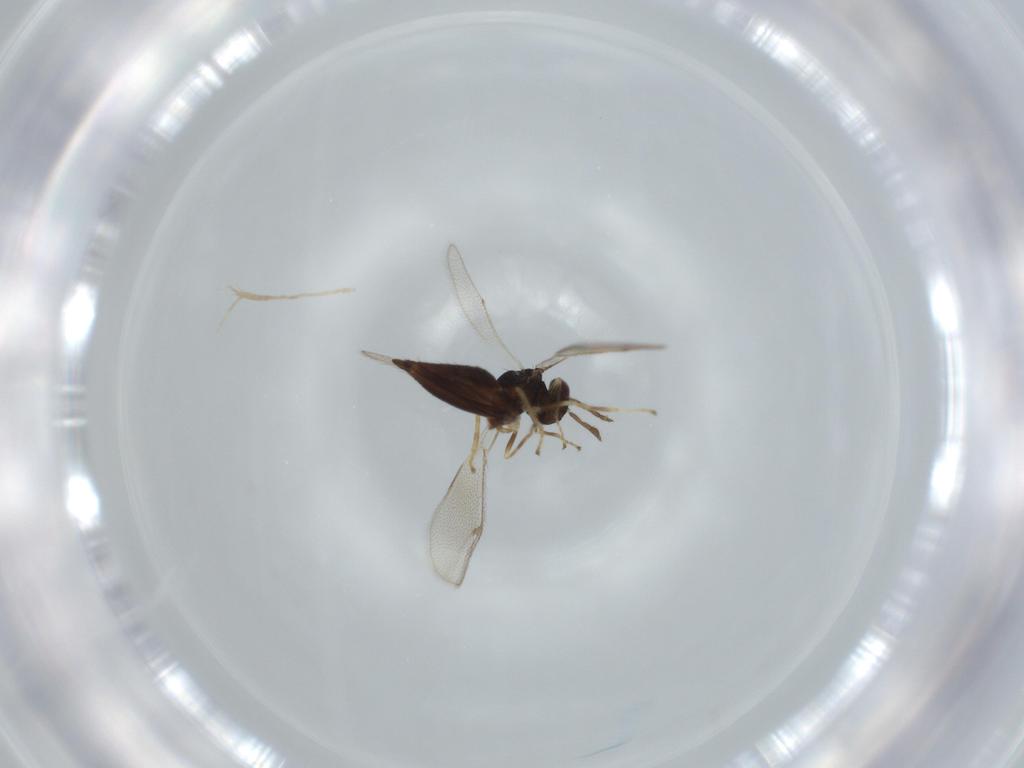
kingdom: Animalia
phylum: Arthropoda
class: Insecta
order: Hymenoptera
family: Eulophidae
